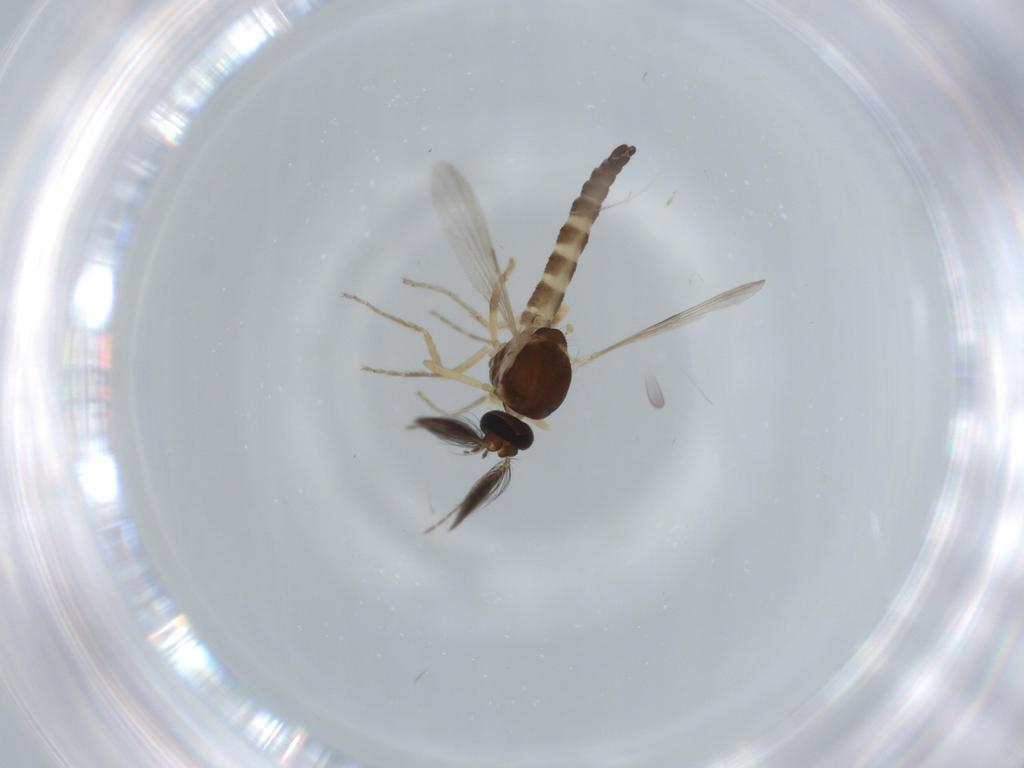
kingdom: Animalia
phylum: Arthropoda
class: Insecta
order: Diptera
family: Ceratopogonidae
